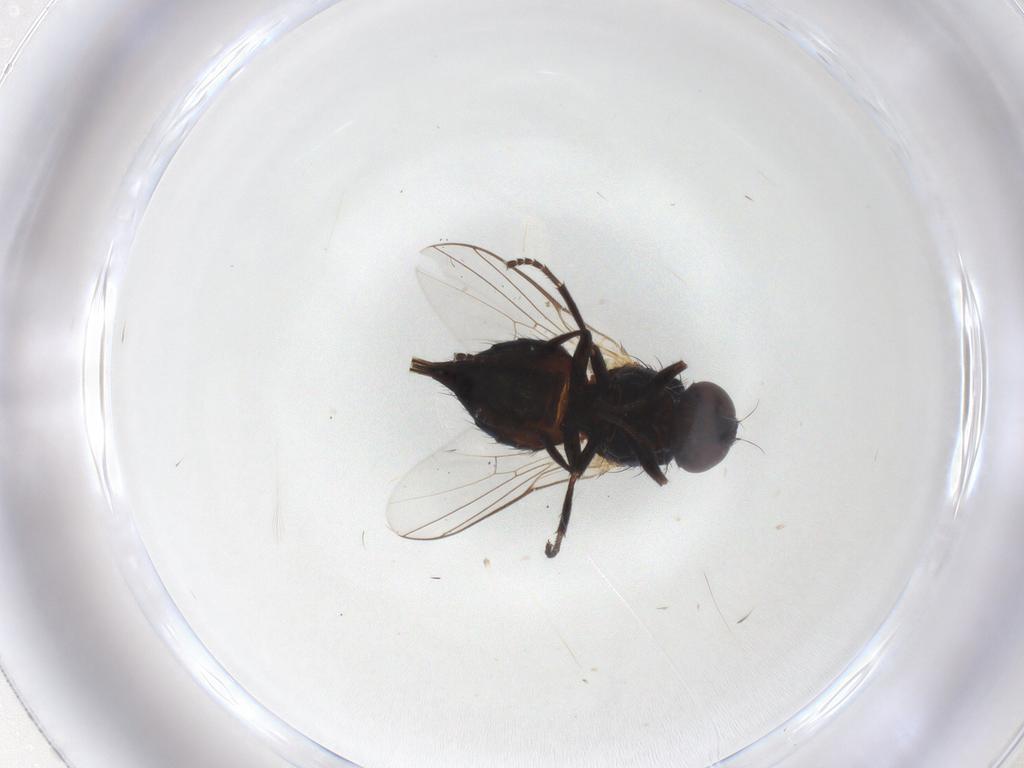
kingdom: Animalia
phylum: Arthropoda
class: Insecta
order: Diptera
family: Agromyzidae
